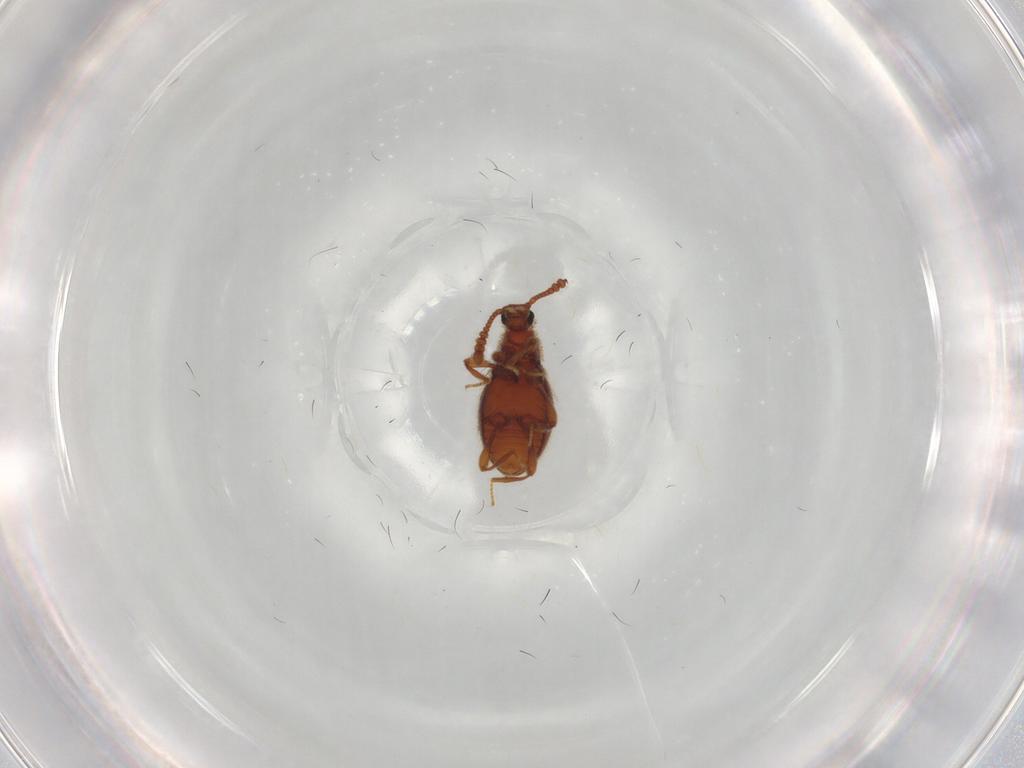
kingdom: Animalia
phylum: Arthropoda
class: Insecta
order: Coleoptera
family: Staphylinidae
